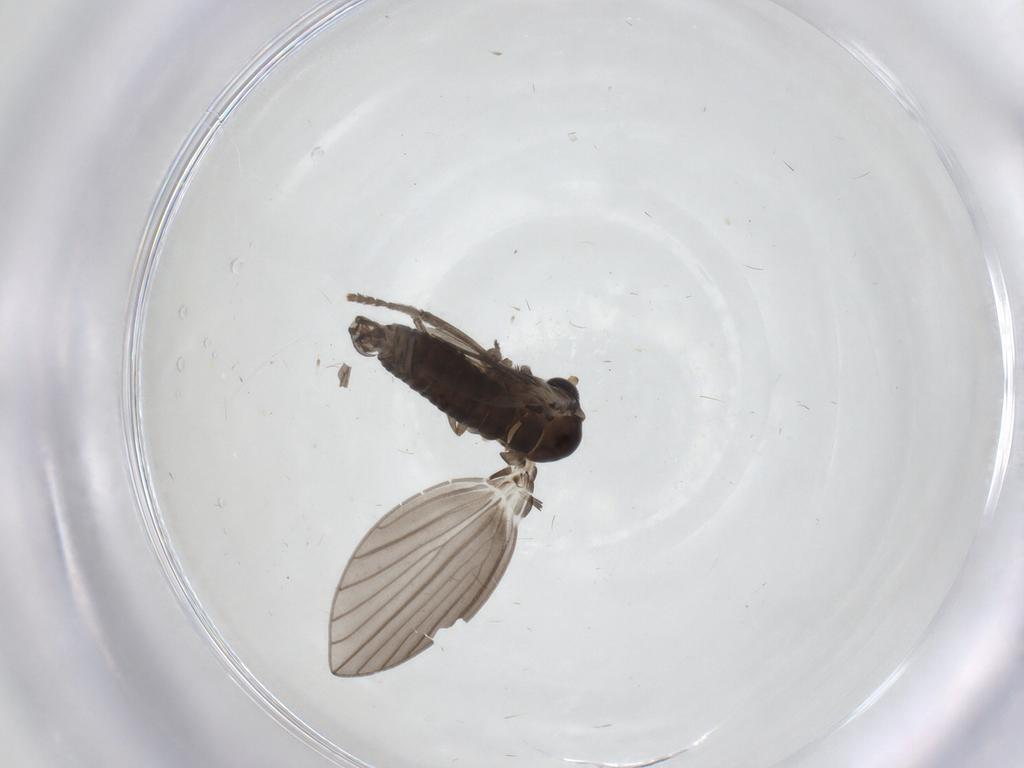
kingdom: Animalia
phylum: Arthropoda
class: Insecta
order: Diptera
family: Psychodidae
